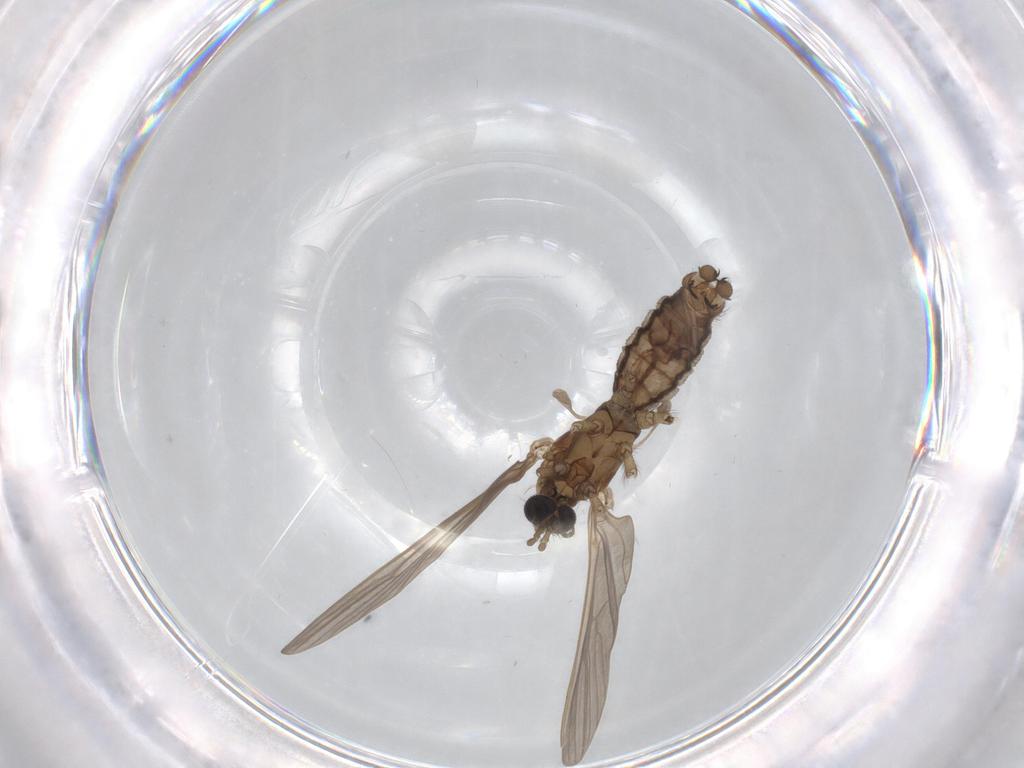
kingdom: Animalia
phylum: Arthropoda
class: Insecta
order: Diptera
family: Limoniidae
